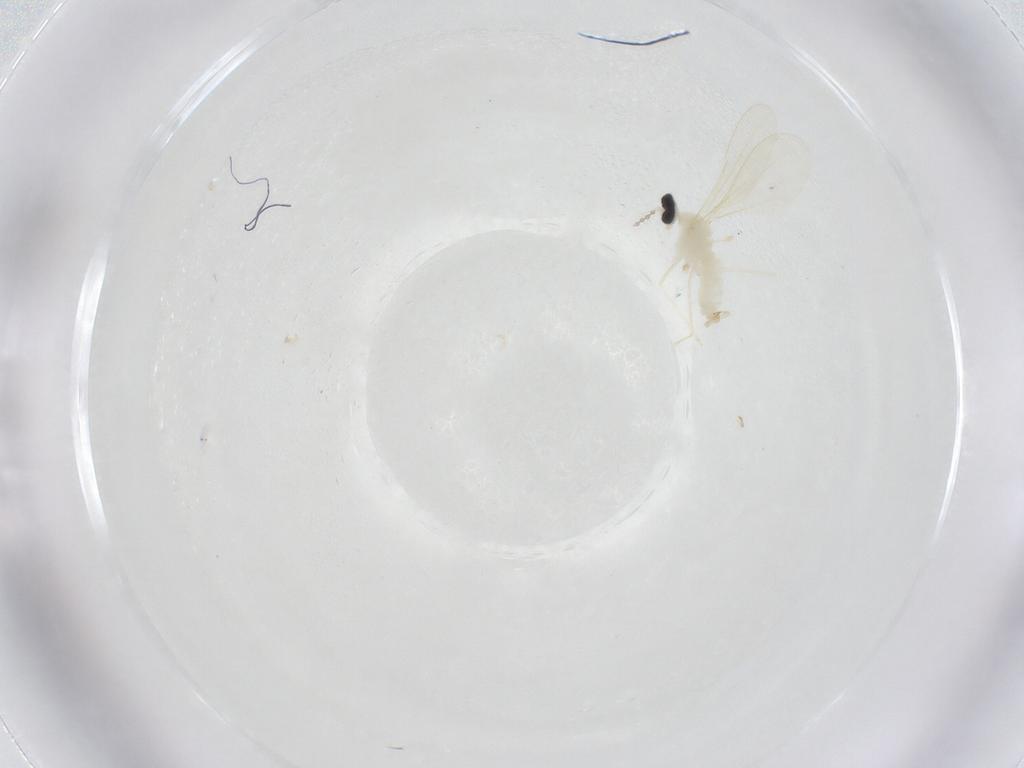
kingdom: Animalia
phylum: Arthropoda
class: Insecta
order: Diptera
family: Cecidomyiidae
